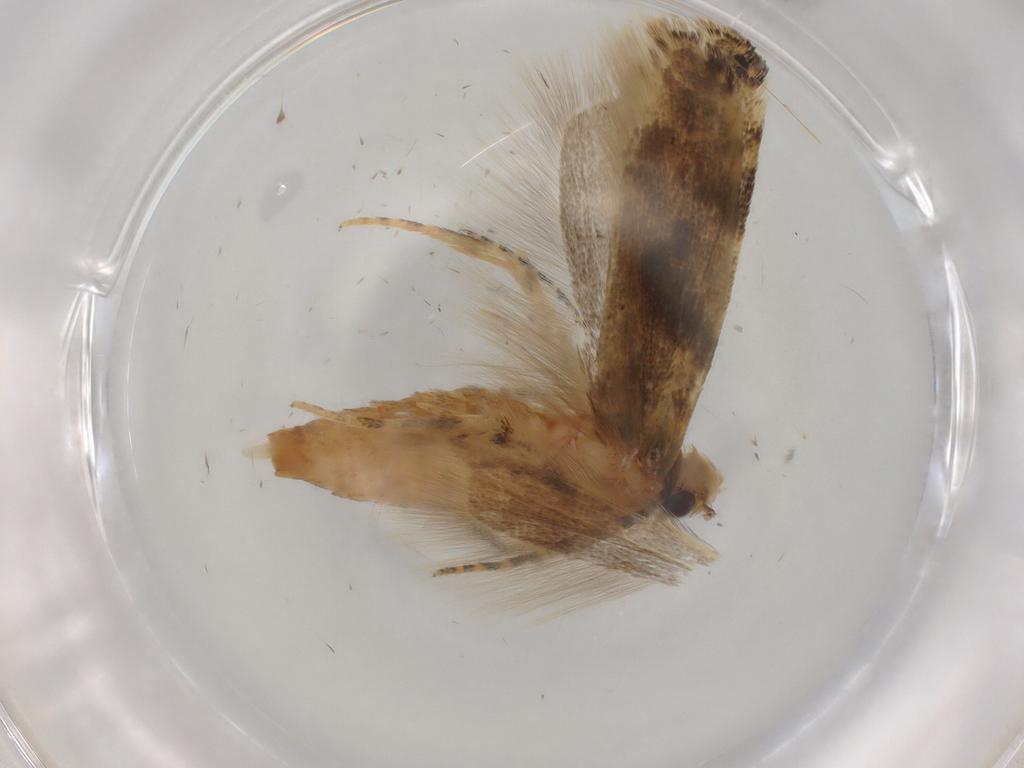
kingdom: Animalia
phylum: Arthropoda
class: Insecta
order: Lepidoptera
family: Gelechiidae
